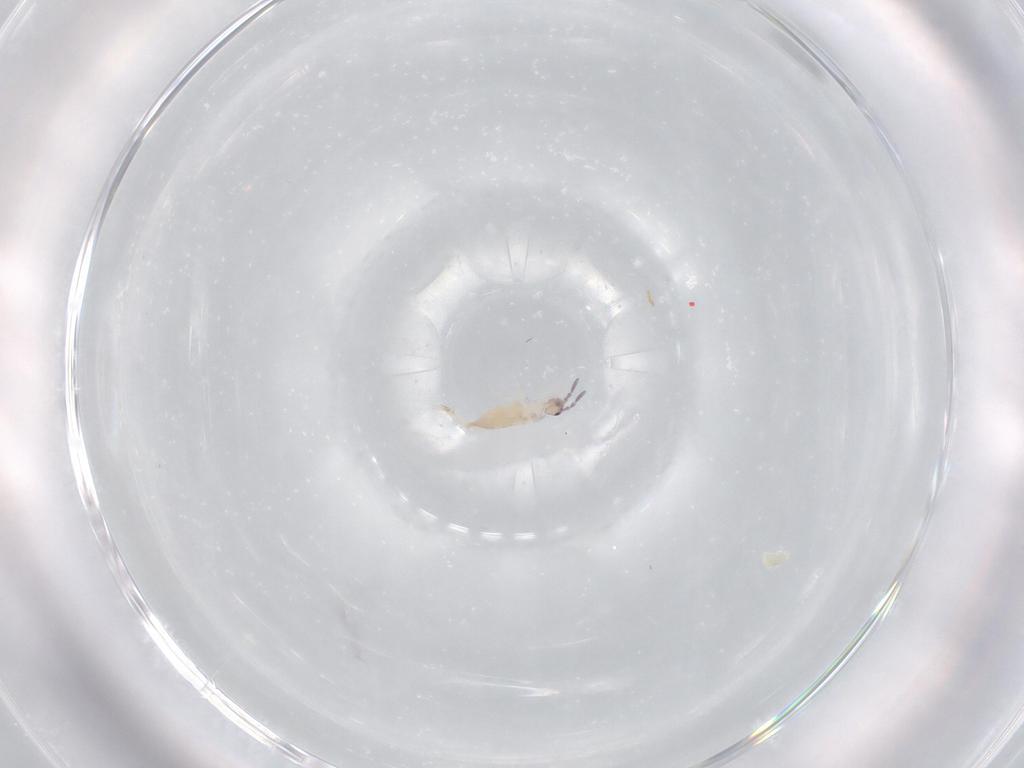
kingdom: Animalia
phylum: Arthropoda
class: Collembola
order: Entomobryomorpha
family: Entomobryidae
